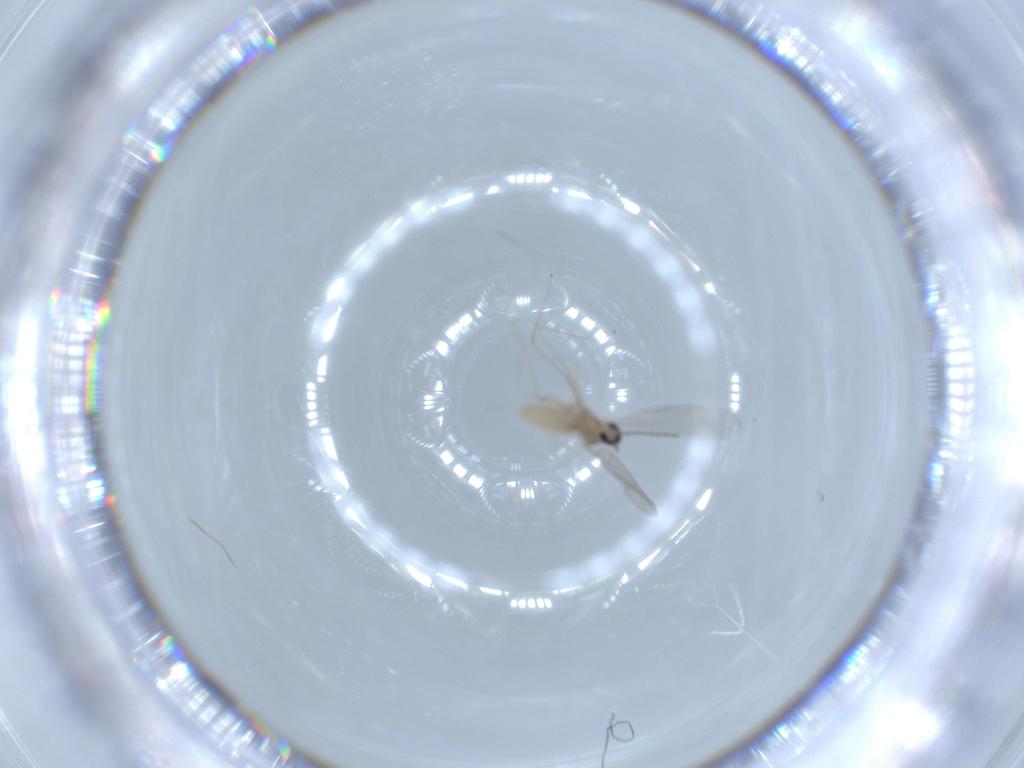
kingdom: Animalia
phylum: Arthropoda
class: Insecta
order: Diptera
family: Cecidomyiidae
